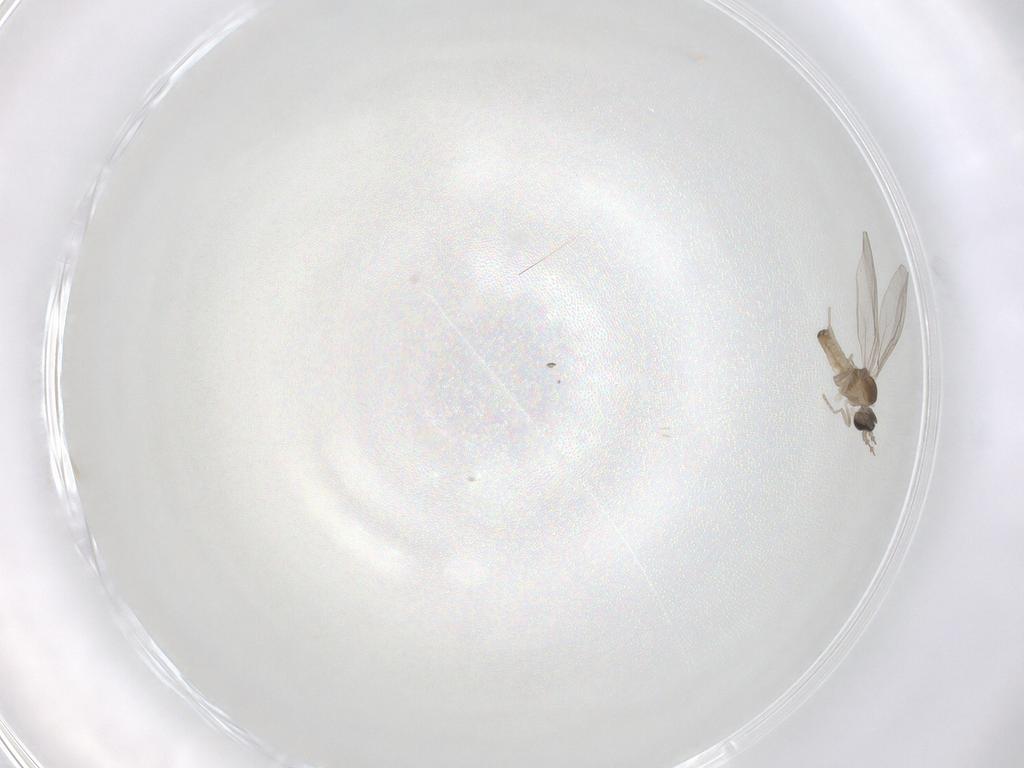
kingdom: Animalia
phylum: Arthropoda
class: Insecta
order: Diptera
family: Cecidomyiidae
